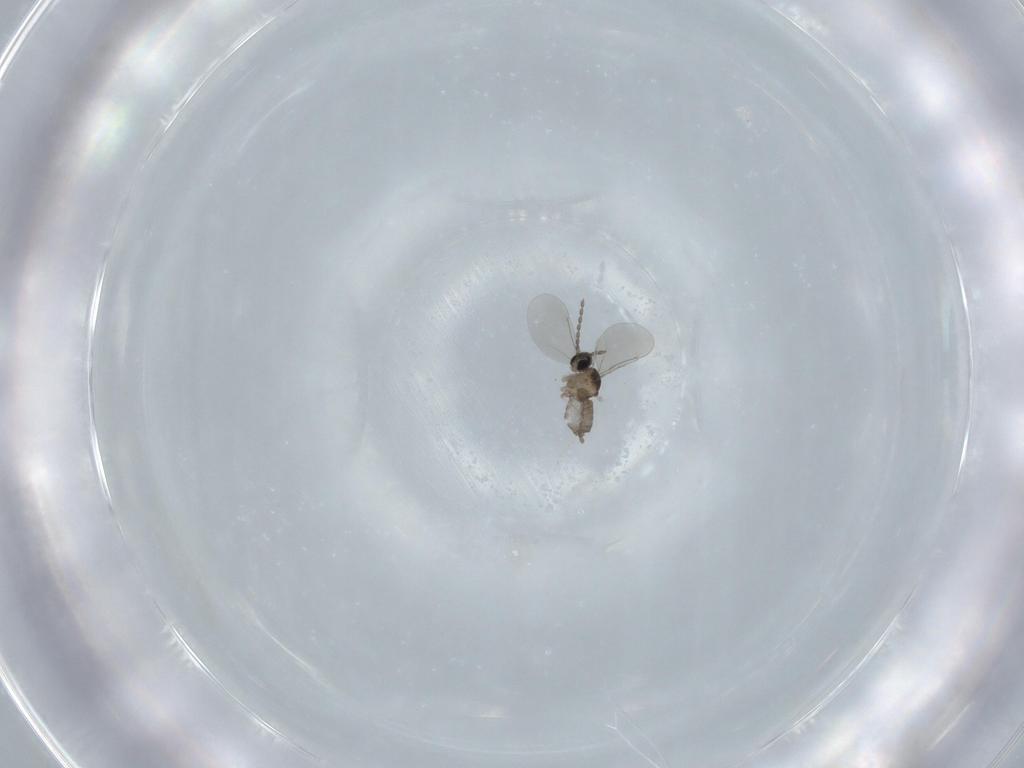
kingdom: Animalia
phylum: Arthropoda
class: Insecta
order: Diptera
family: Cecidomyiidae
